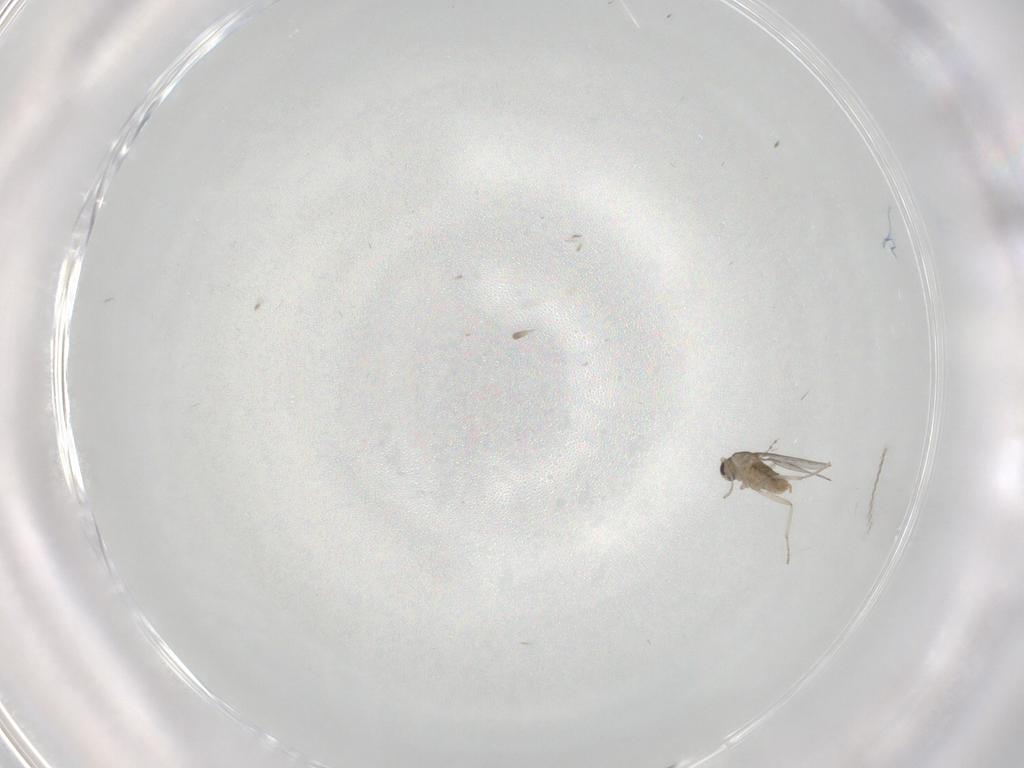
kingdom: Animalia
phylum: Arthropoda
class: Insecta
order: Diptera
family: Cecidomyiidae
